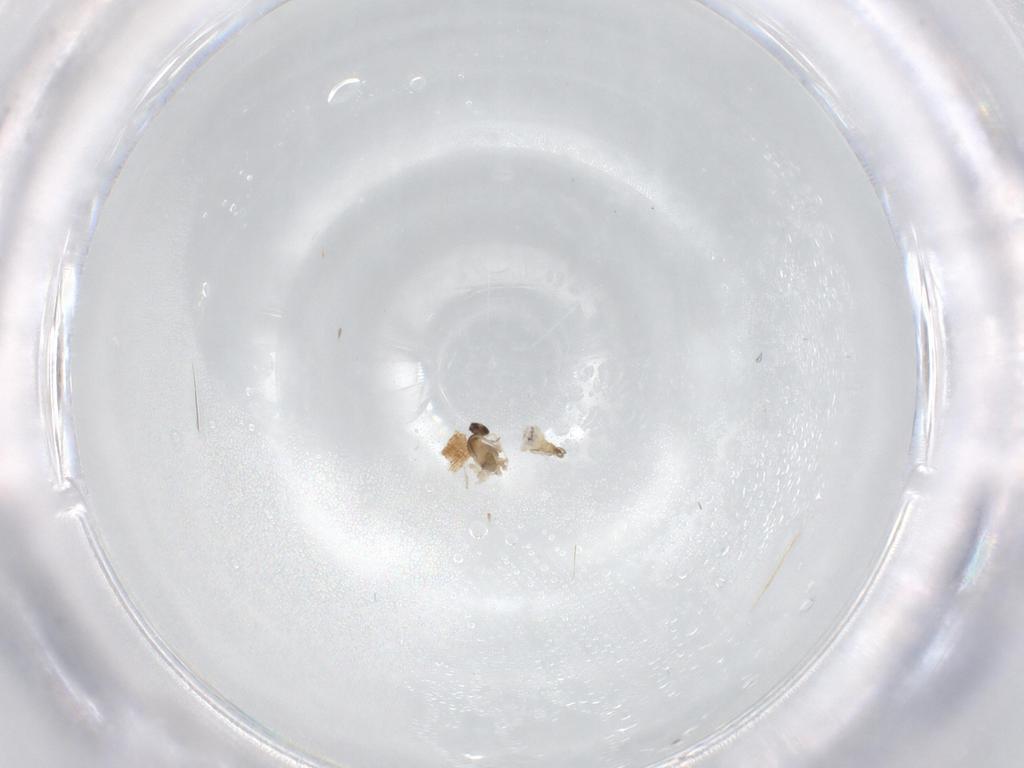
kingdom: Animalia
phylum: Arthropoda
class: Insecta
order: Diptera
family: Cecidomyiidae
